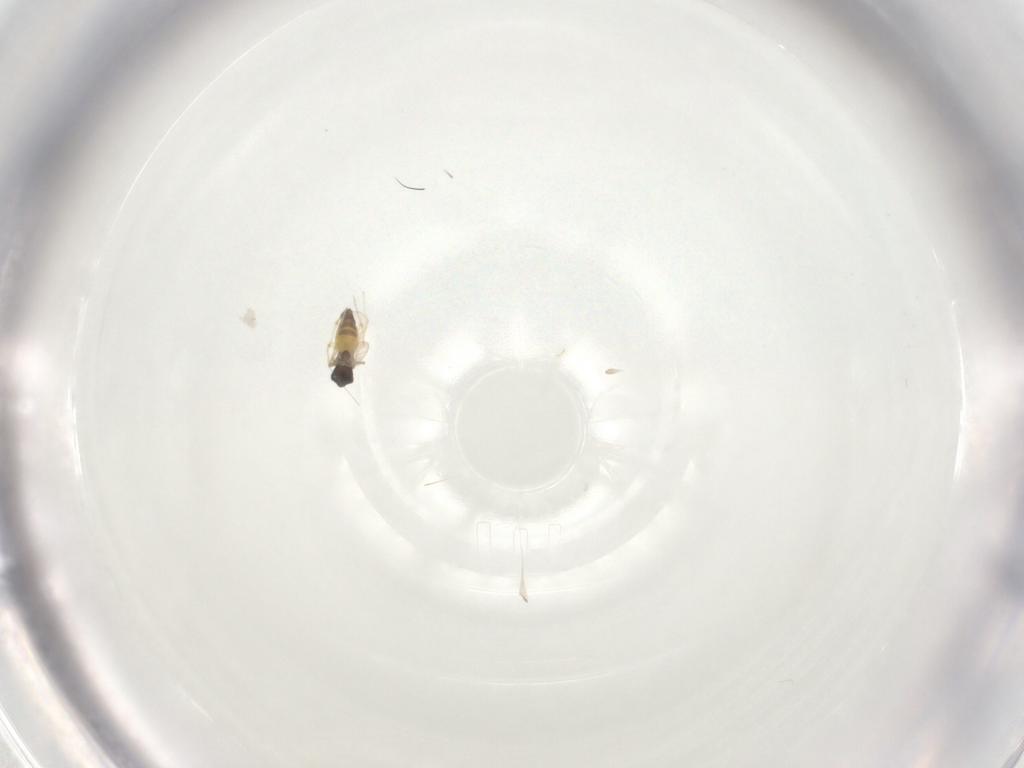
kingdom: Animalia
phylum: Arthropoda
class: Insecta
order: Diptera
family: Chironomidae
